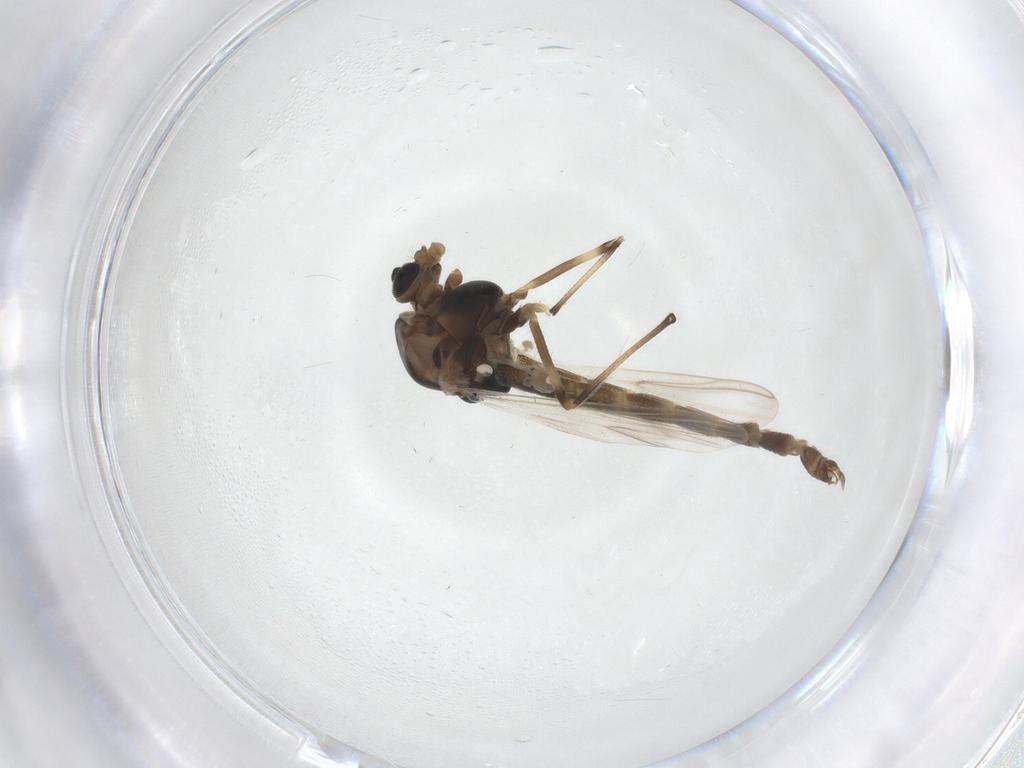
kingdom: Animalia
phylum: Arthropoda
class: Insecta
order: Diptera
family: Chironomidae
